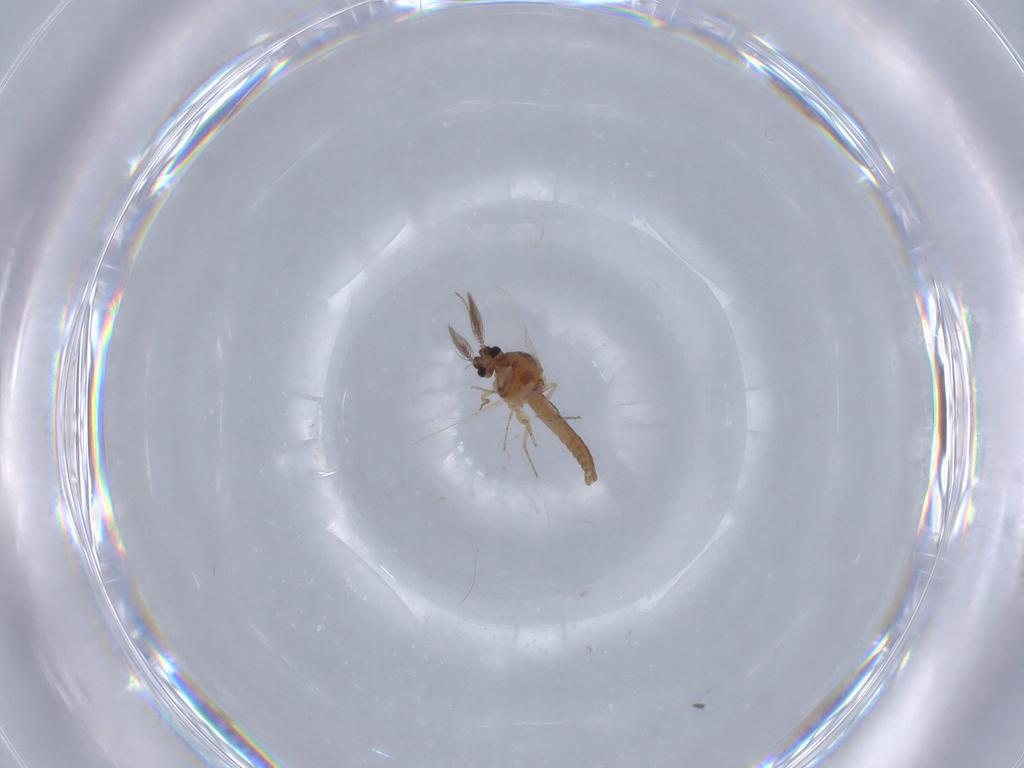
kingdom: Animalia
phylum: Arthropoda
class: Insecta
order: Diptera
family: Ceratopogonidae
